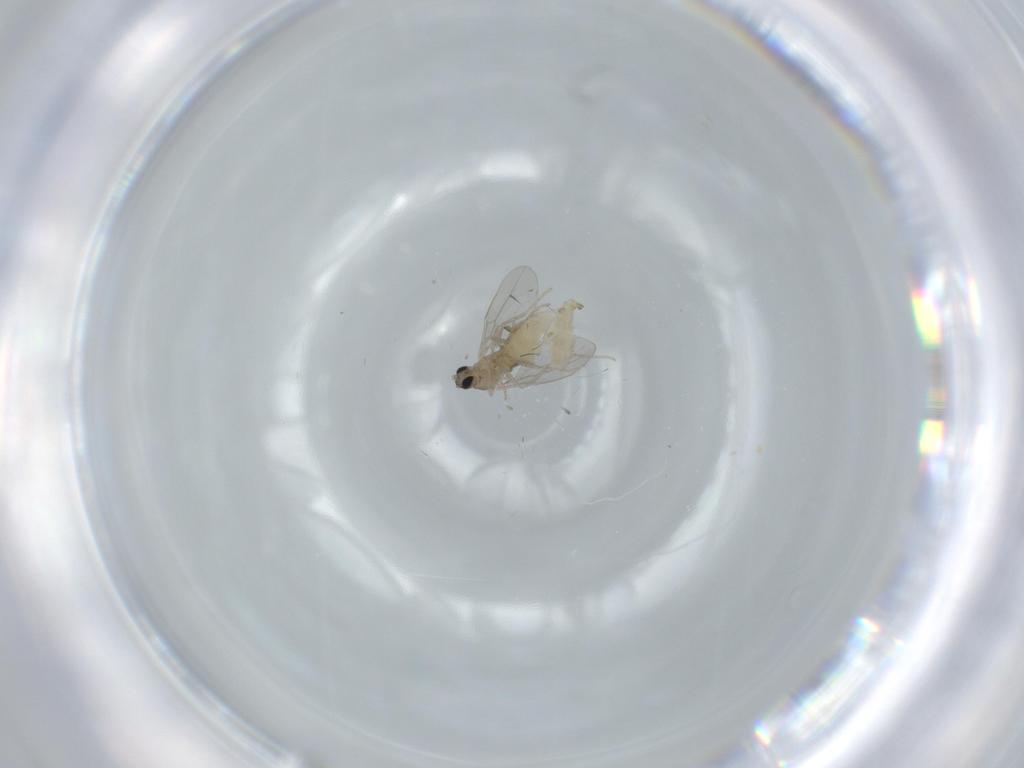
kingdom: Animalia
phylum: Arthropoda
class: Insecta
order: Diptera
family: Cecidomyiidae
